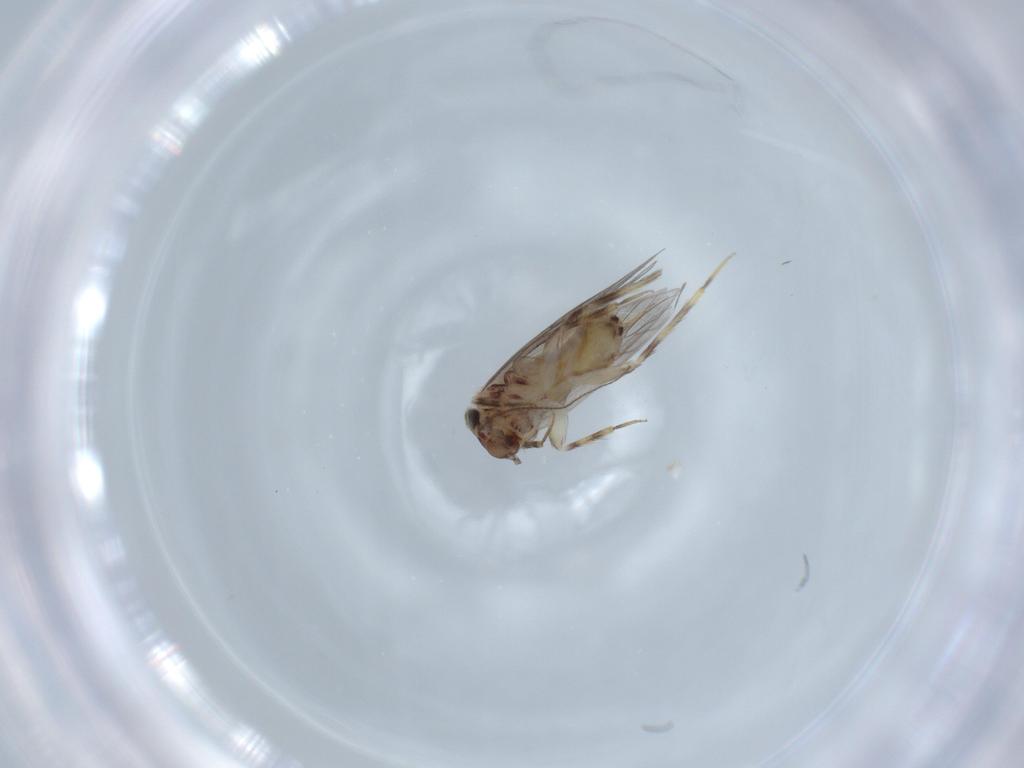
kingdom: Animalia
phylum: Arthropoda
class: Insecta
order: Psocodea
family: Lepidopsocidae
